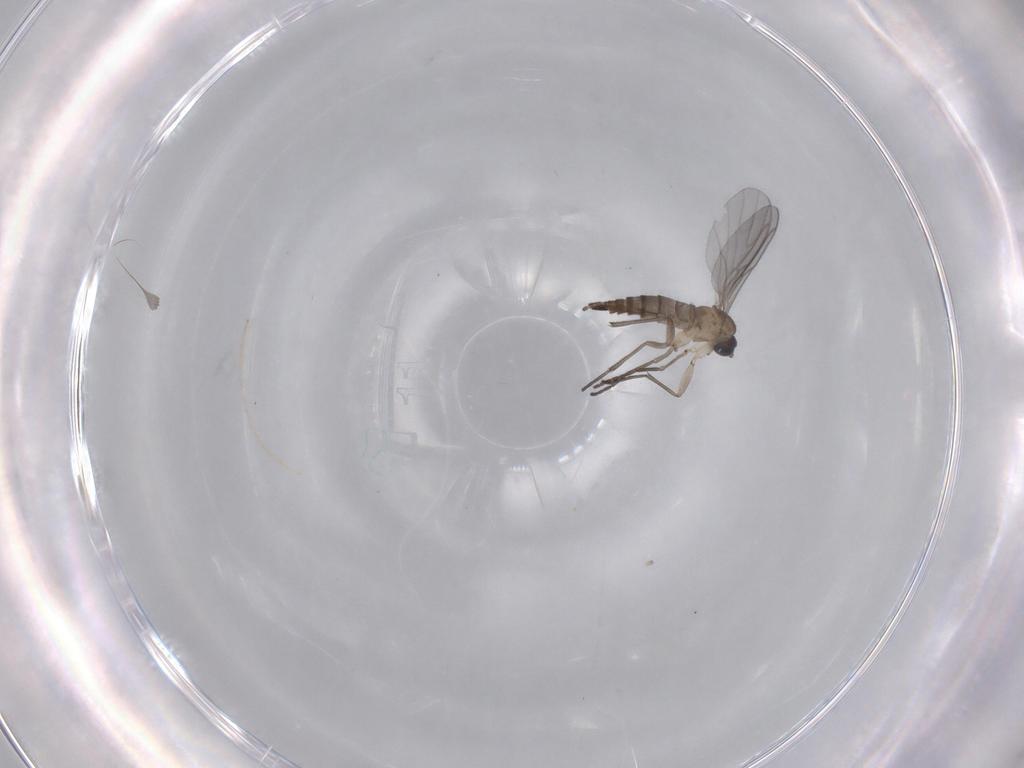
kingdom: Animalia
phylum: Arthropoda
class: Insecta
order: Diptera
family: Sciaridae
